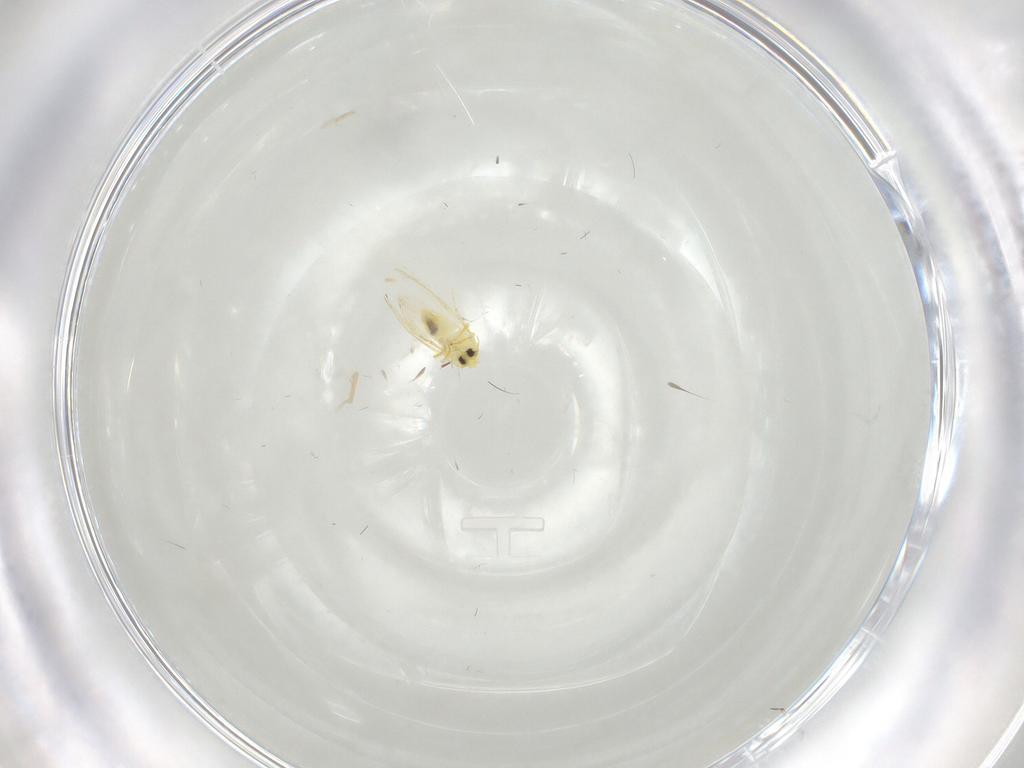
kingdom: Animalia
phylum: Arthropoda
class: Insecta
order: Hemiptera
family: Aleyrodidae
